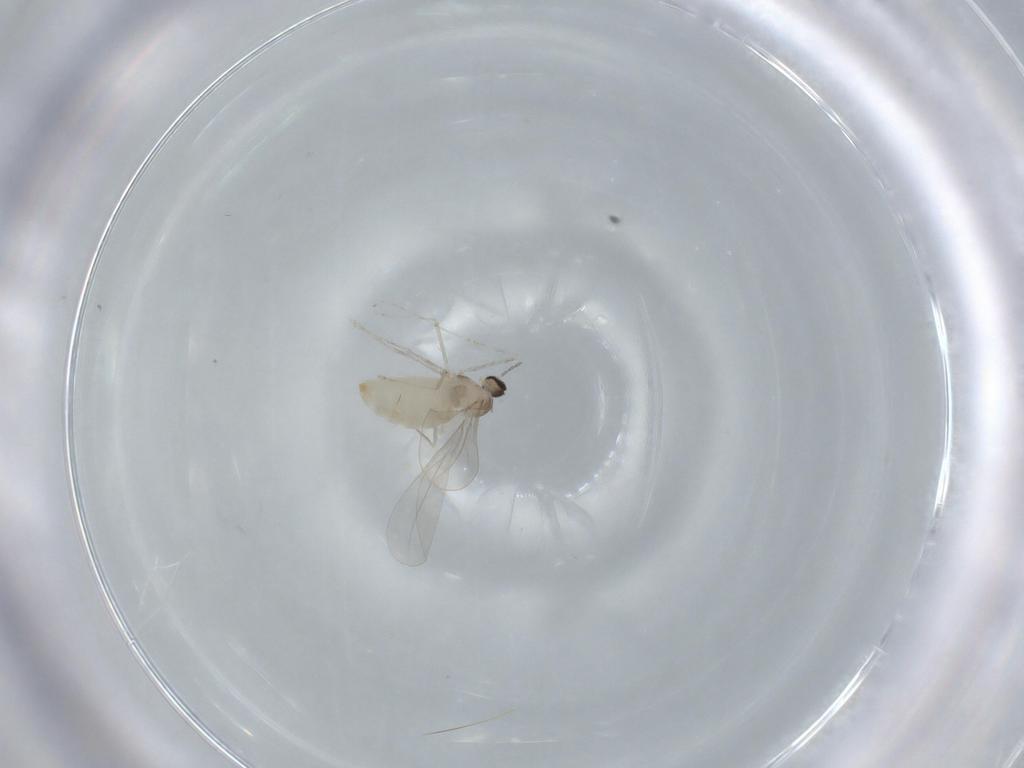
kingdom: Animalia
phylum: Arthropoda
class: Insecta
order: Diptera
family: Cecidomyiidae
